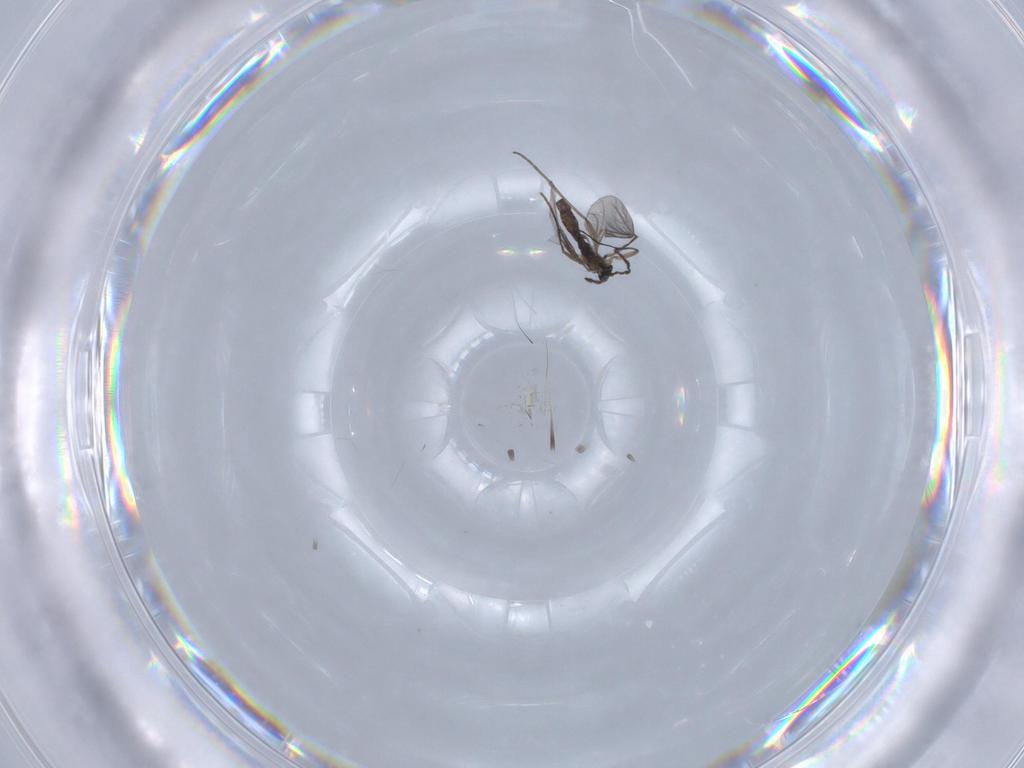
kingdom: Animalia
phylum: Arthropoda
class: Insecta
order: Diptera
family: Sciaridae
